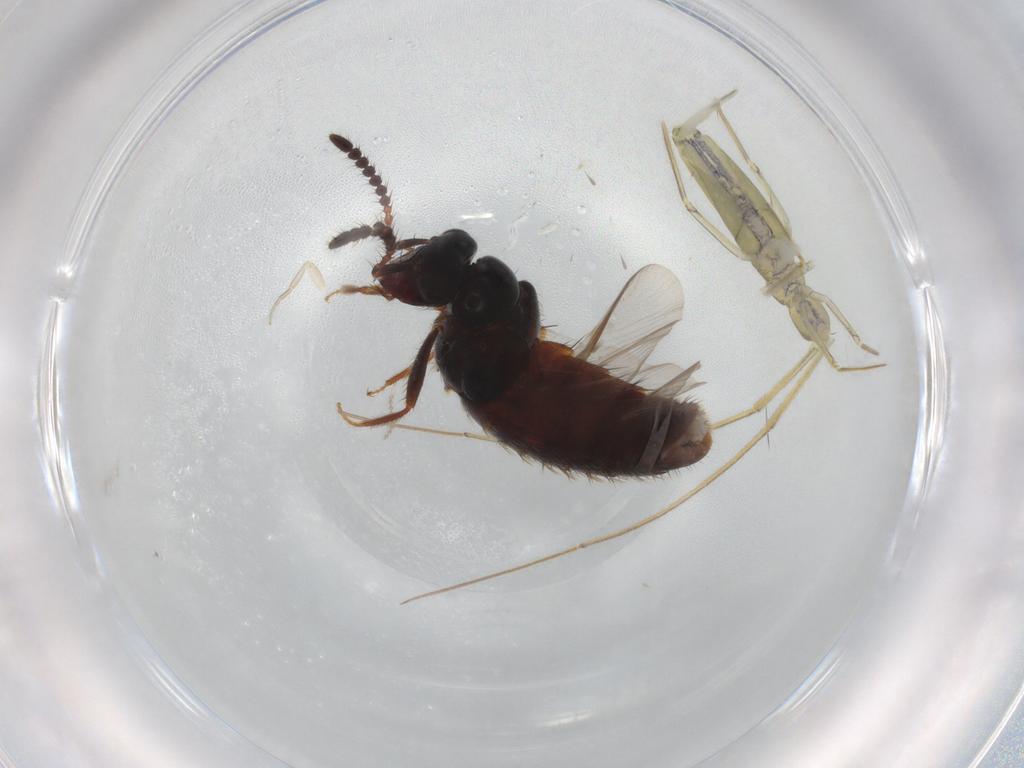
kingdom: Animalia
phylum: Arthropoda
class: Insecta
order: Coleoptera
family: Staphylinidae
